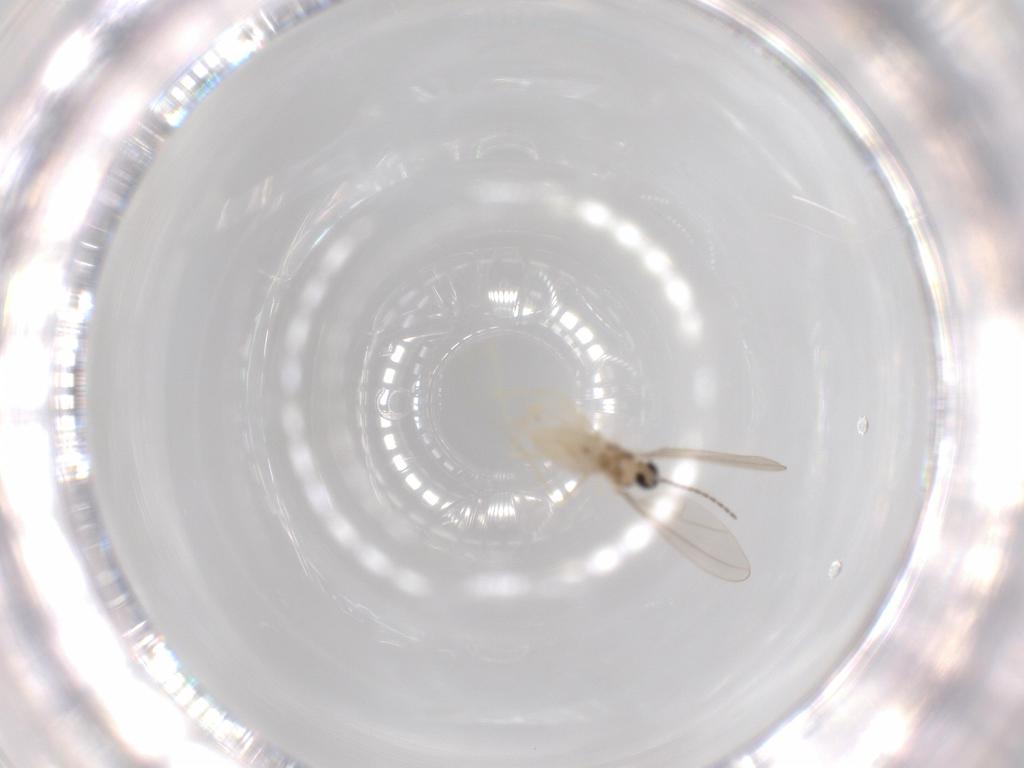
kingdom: Animalia
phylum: Arthropoda
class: Insecta
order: Diptera
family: Cecidomyiidae
